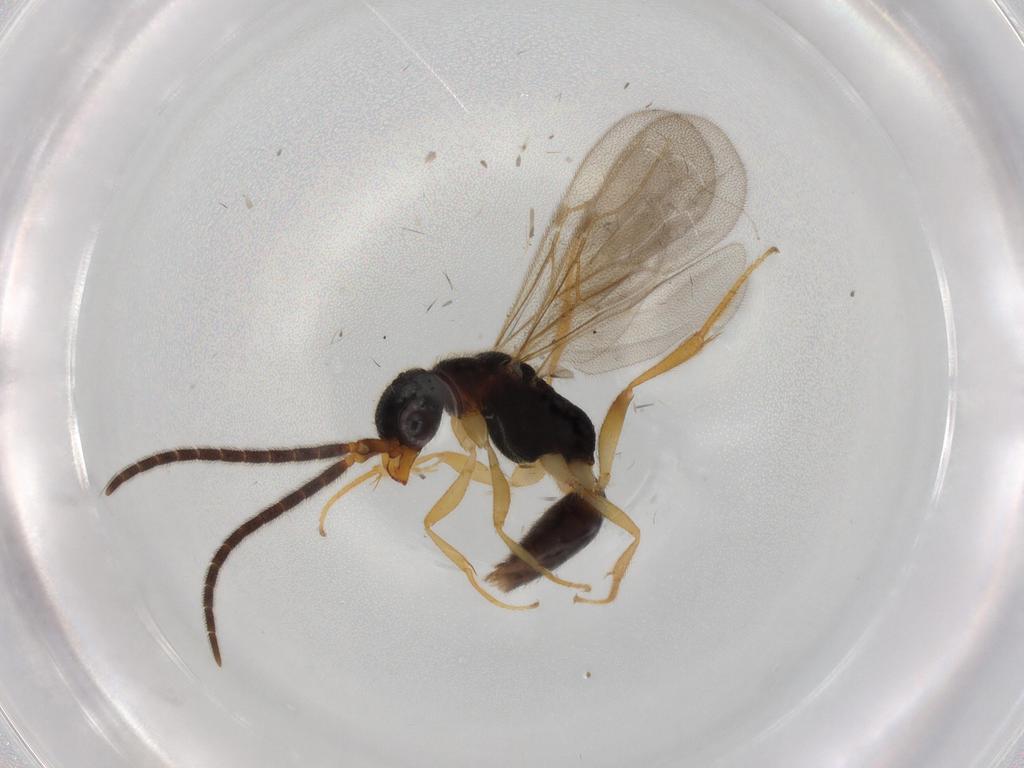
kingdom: Animalia
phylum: Arthropoda
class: Insecta
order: Hymenoptera
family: Bethylidae
